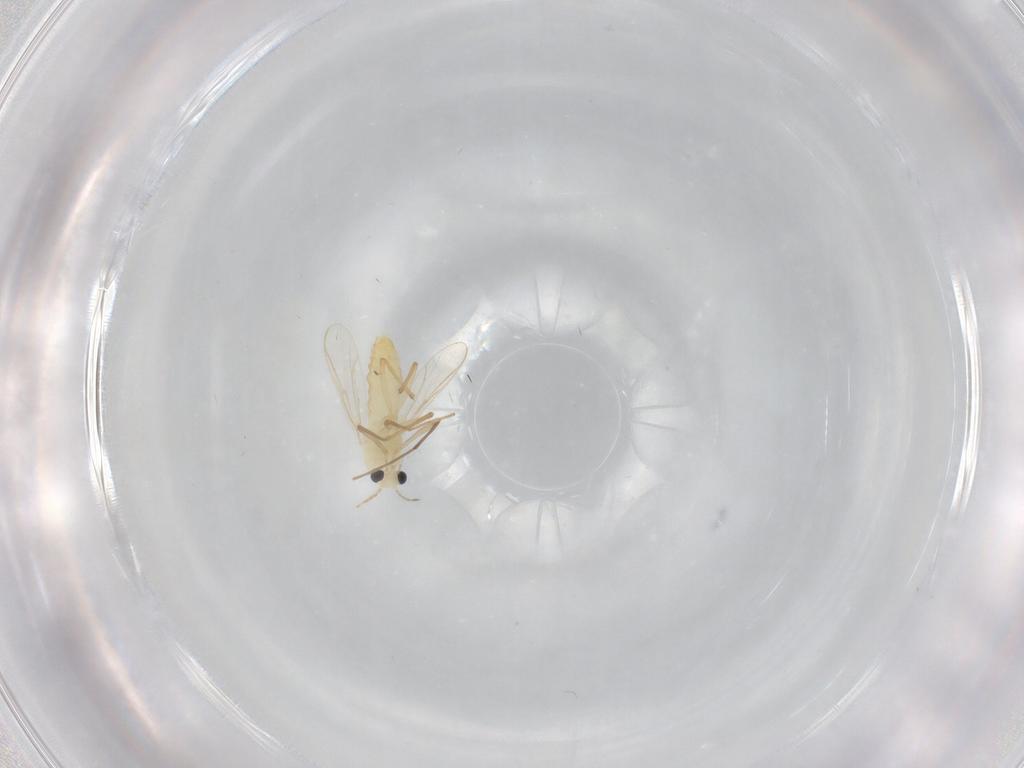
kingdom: Animalia
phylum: Arthropoda
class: Insecta
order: Diptera
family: Chironomidae
